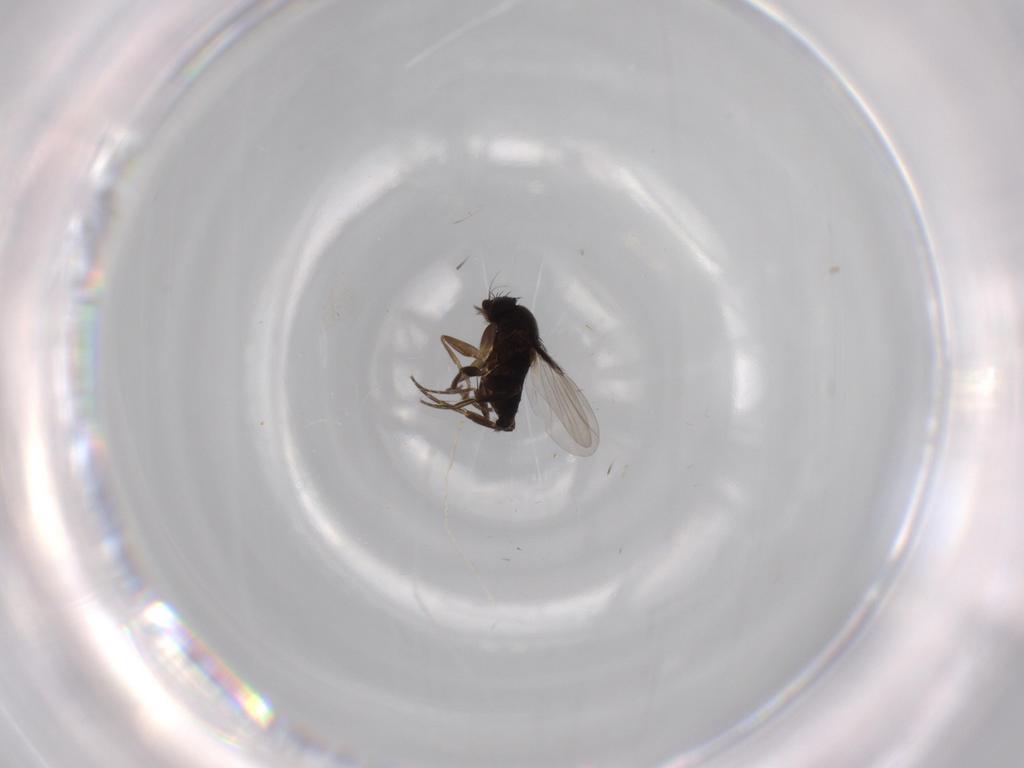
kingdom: Animalia
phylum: Arthropoda
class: Insecta
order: Diptera
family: Cecidomyiidae
